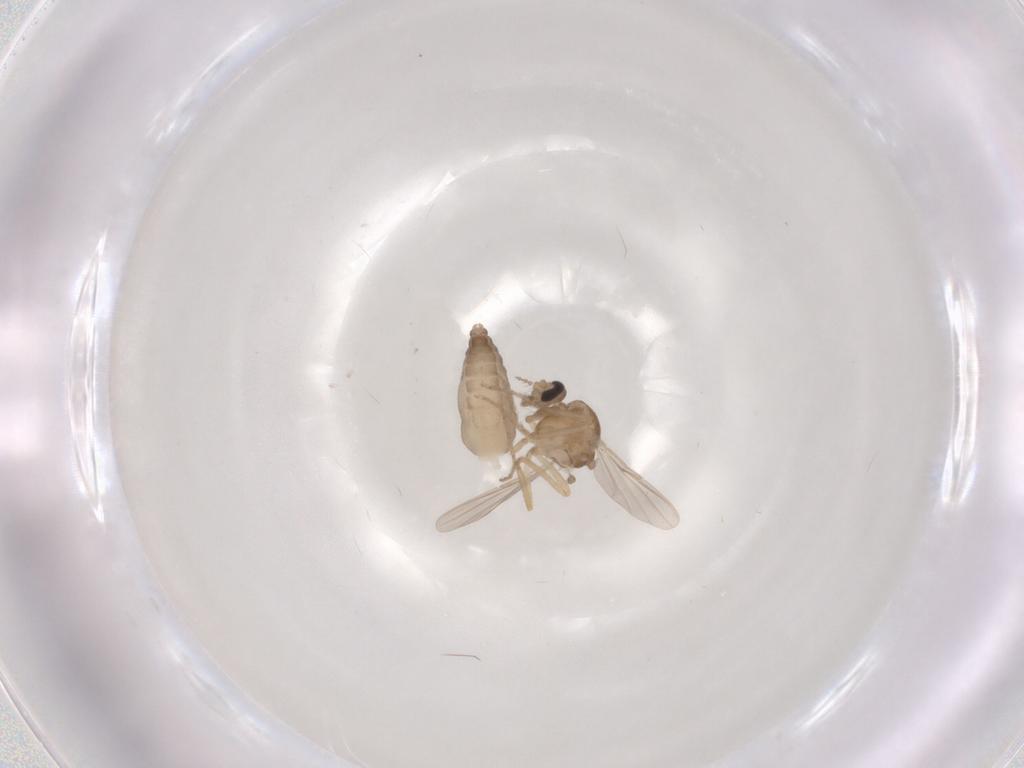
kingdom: Animalia
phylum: Arthropoda
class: Insecta
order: Diptera
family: Ceratopogonidae
